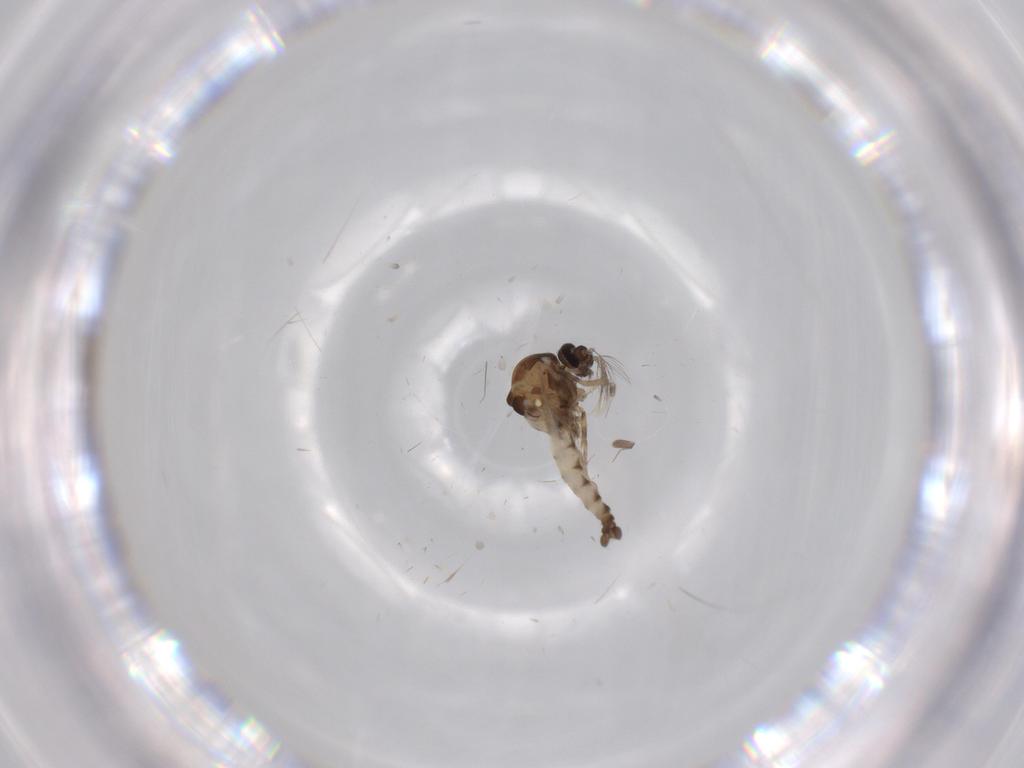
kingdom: Animalia
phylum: Arthropoda
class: Insecta
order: Diptera
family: Ceratopogonidae
